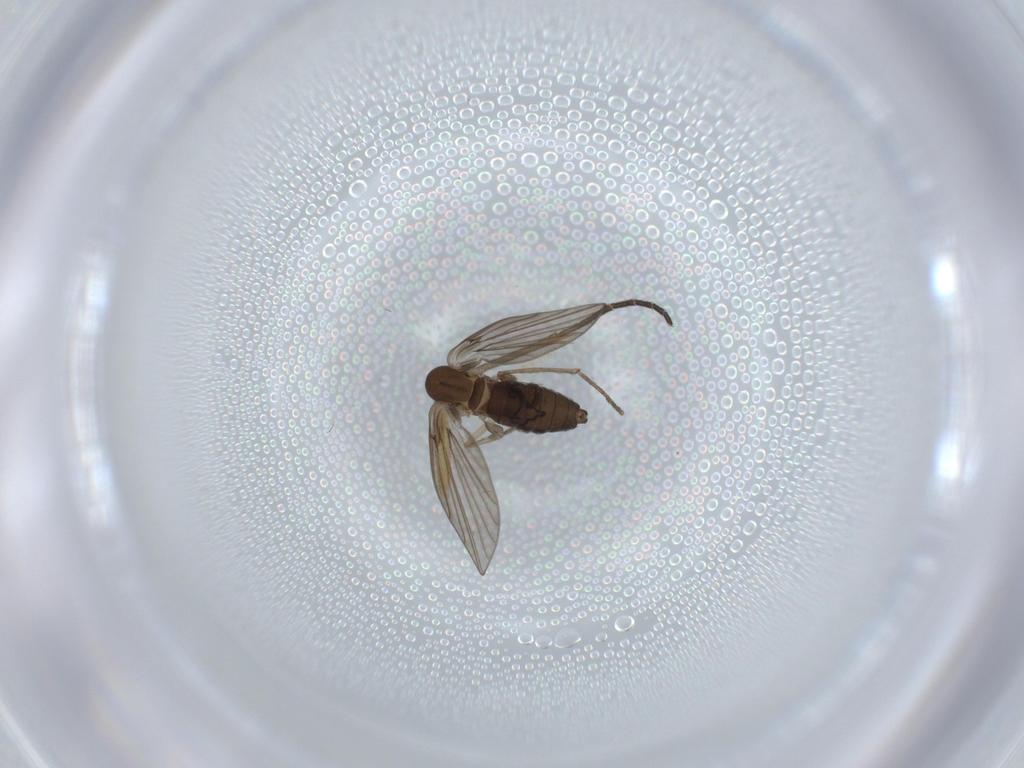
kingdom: Animalia
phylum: Arthropoda
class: Insecta
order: Diptera
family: Sciaridae
